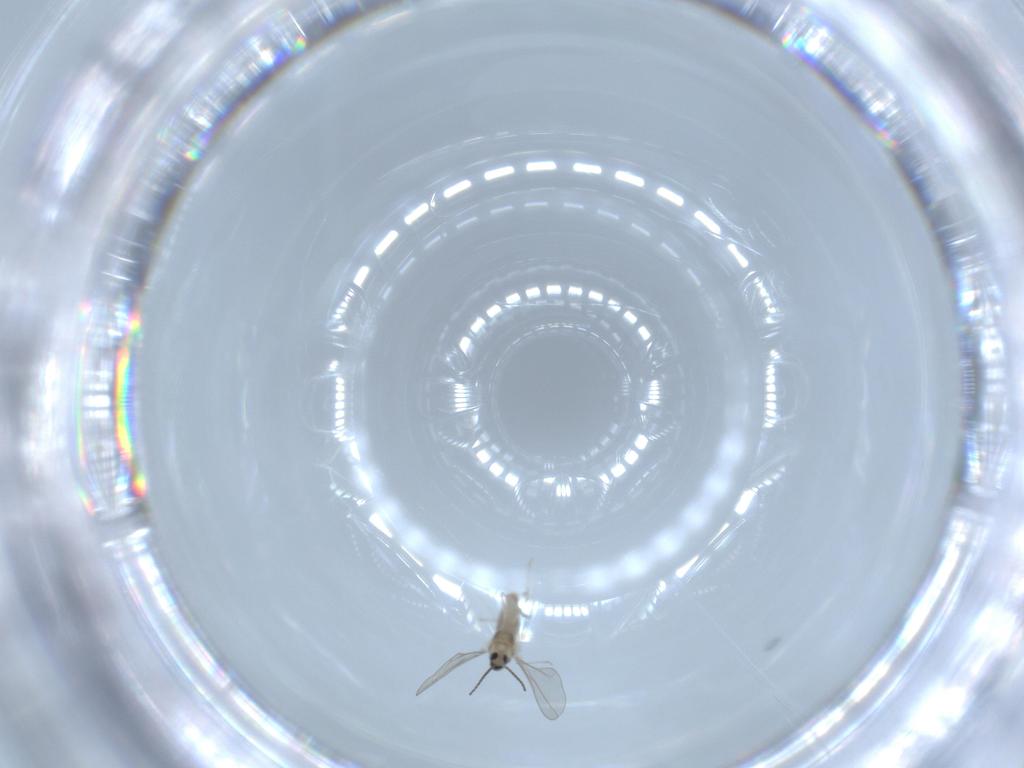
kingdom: Animalia
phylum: Arthropoda
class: Insecta
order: Diptera
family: Cecidomyiidae
